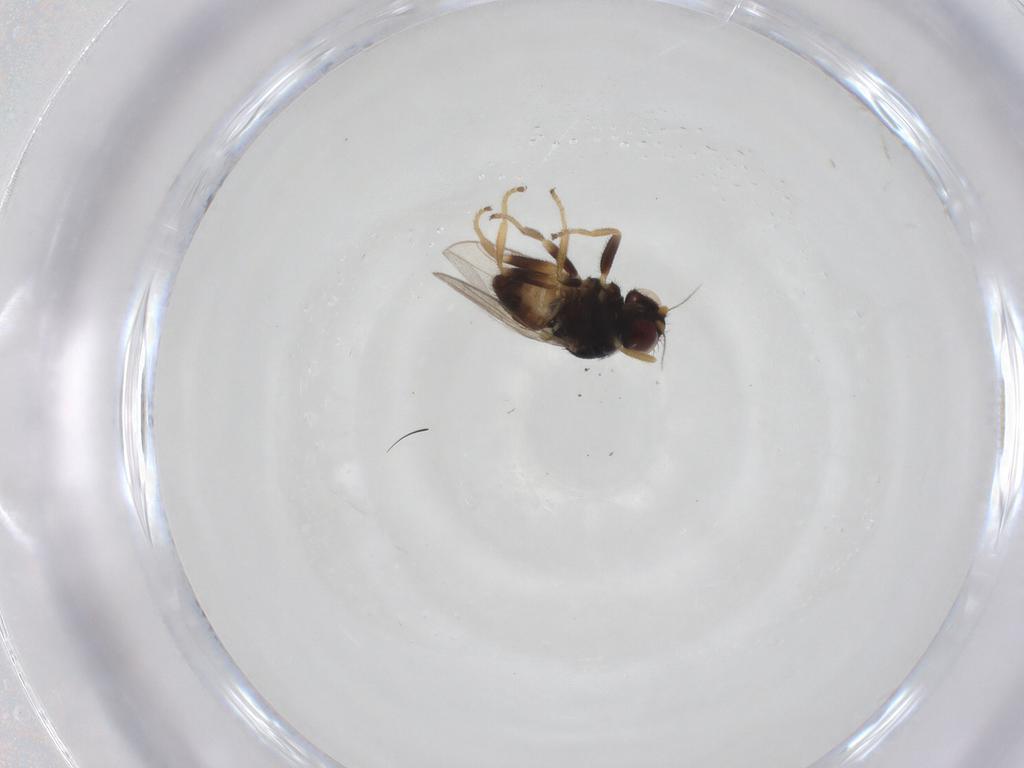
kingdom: Animalia
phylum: Arthropoda
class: Insecta
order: Diptera
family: Chloropidae
